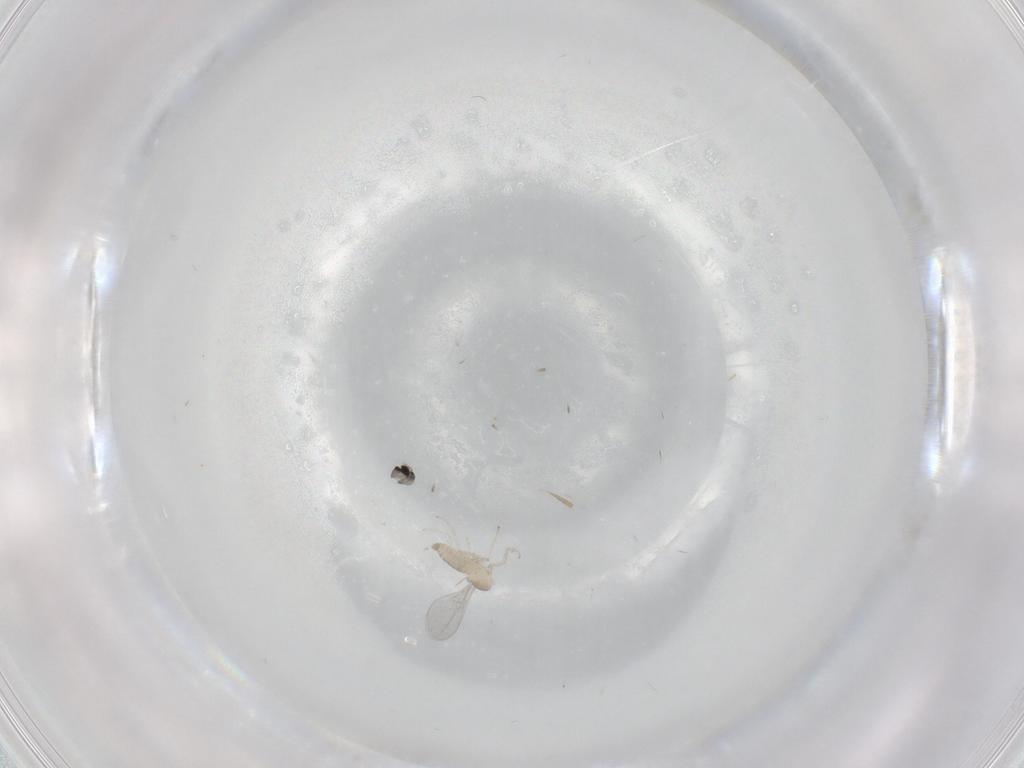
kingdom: Animalia
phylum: Arthropoda
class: Insecta
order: Diptera
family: Cecidomyiidae
